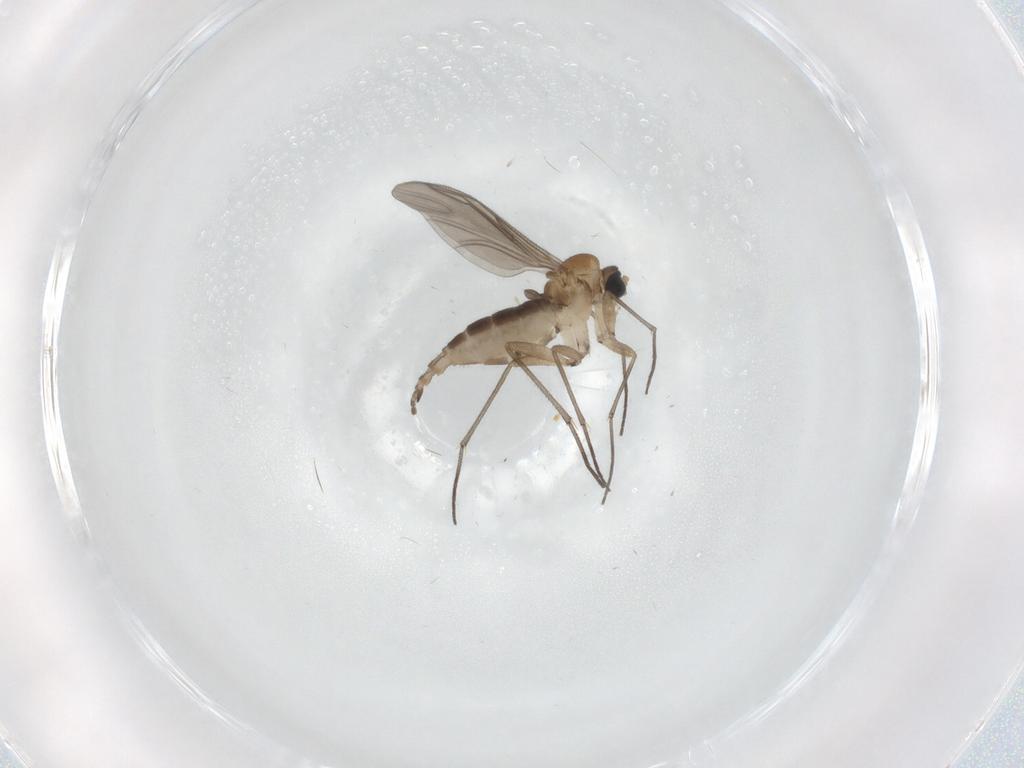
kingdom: Animalia
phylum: Arthropoda
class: Insecta
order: Diptera
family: Sciaridae
